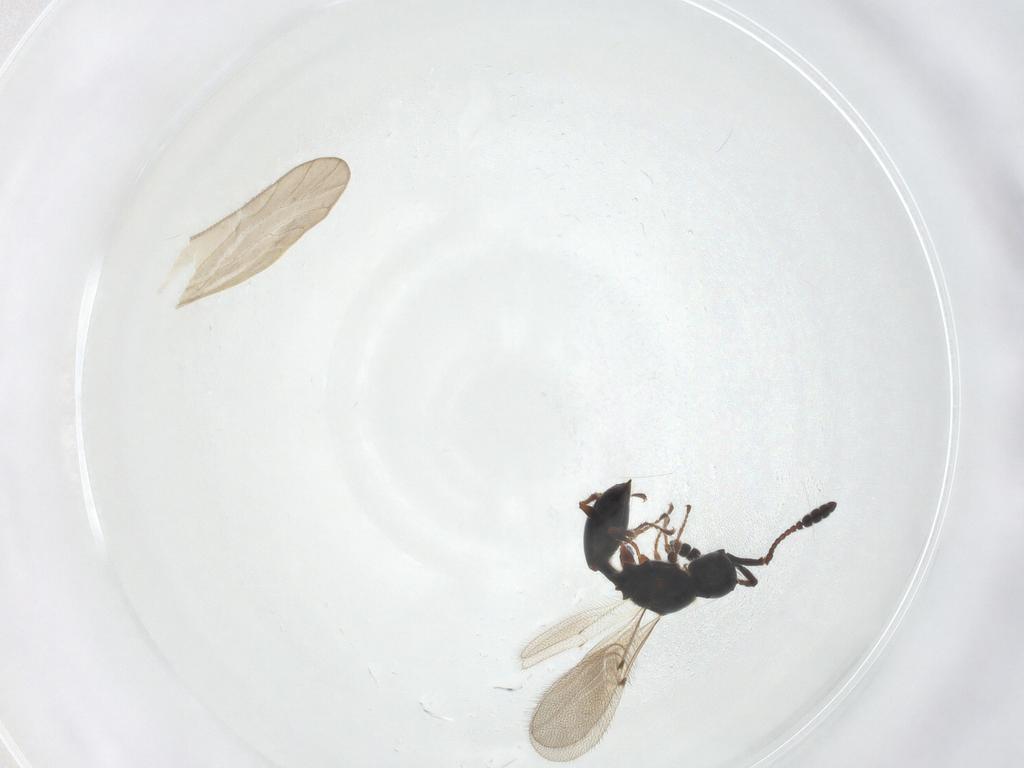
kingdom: Animalia
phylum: Arthropoda
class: Insecta
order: Hymenoptera
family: Diapriidae
